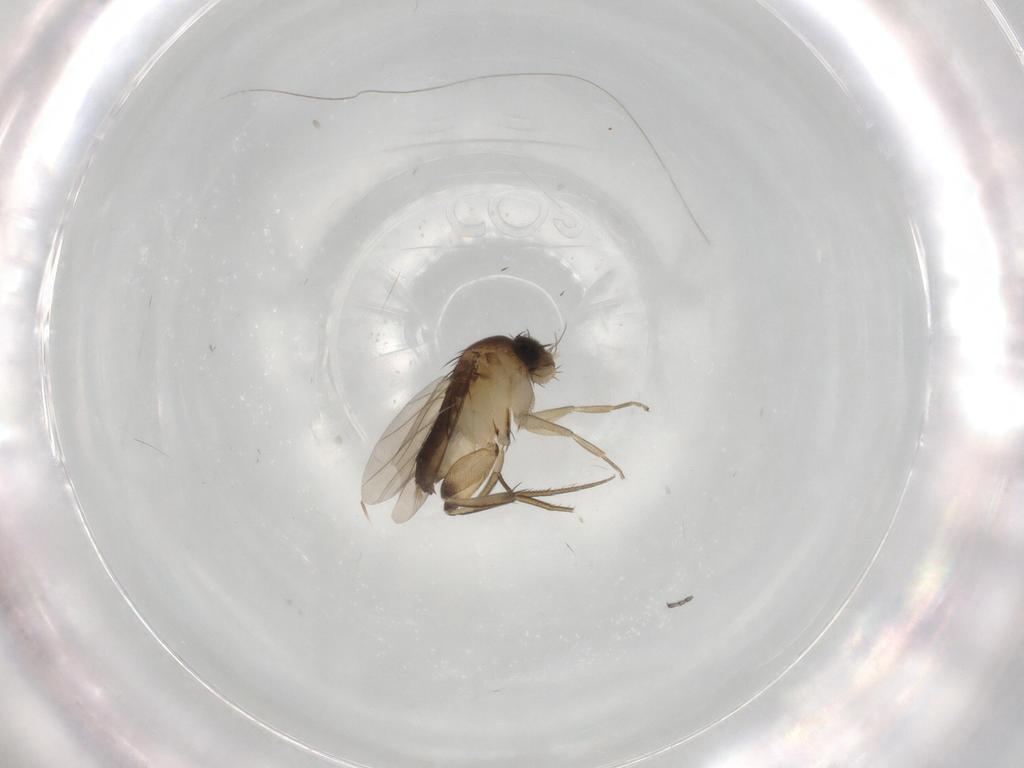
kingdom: Animalia
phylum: Arthropoda
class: Insecta
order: Diptera
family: Phoridae
